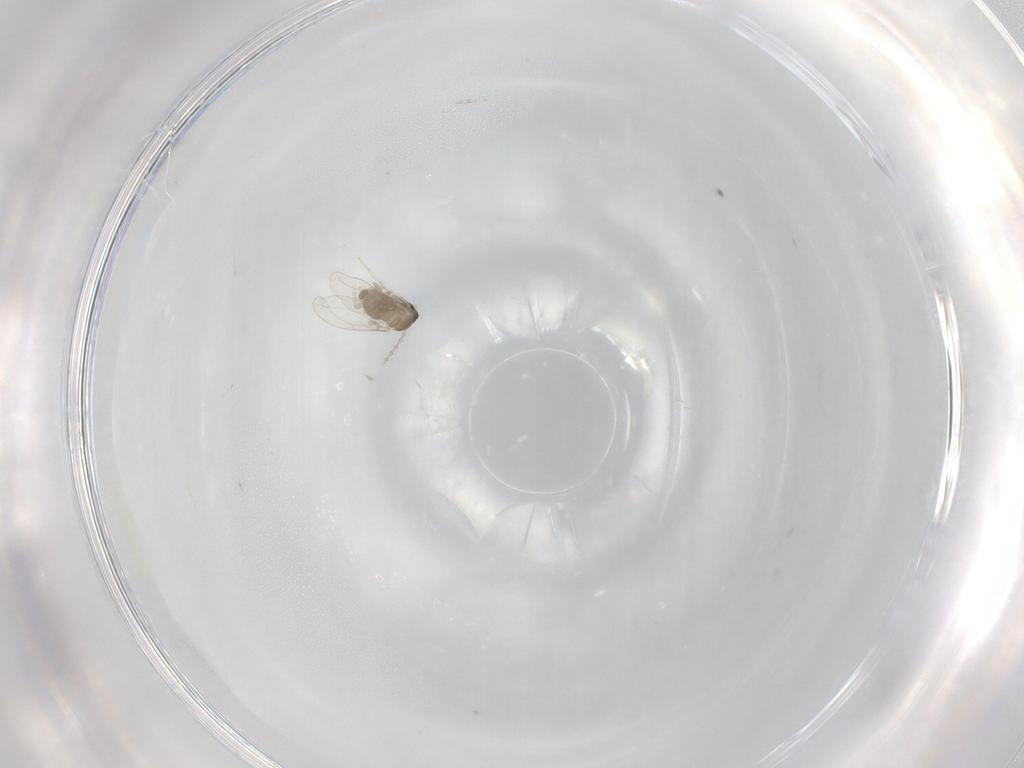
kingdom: Animalia
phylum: Arthropoda
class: Insecta
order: Diptera
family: Cecidomyiidae
